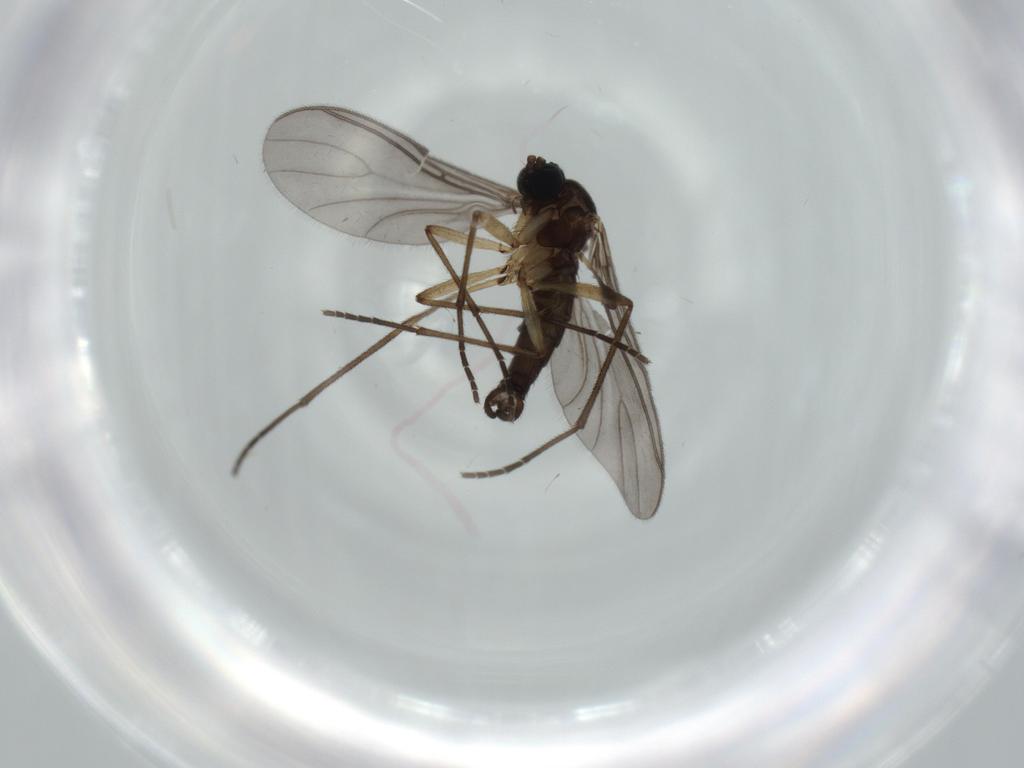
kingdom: Animalia
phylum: Arthropoda
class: Insecta
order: Diptera
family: Sciaridae
